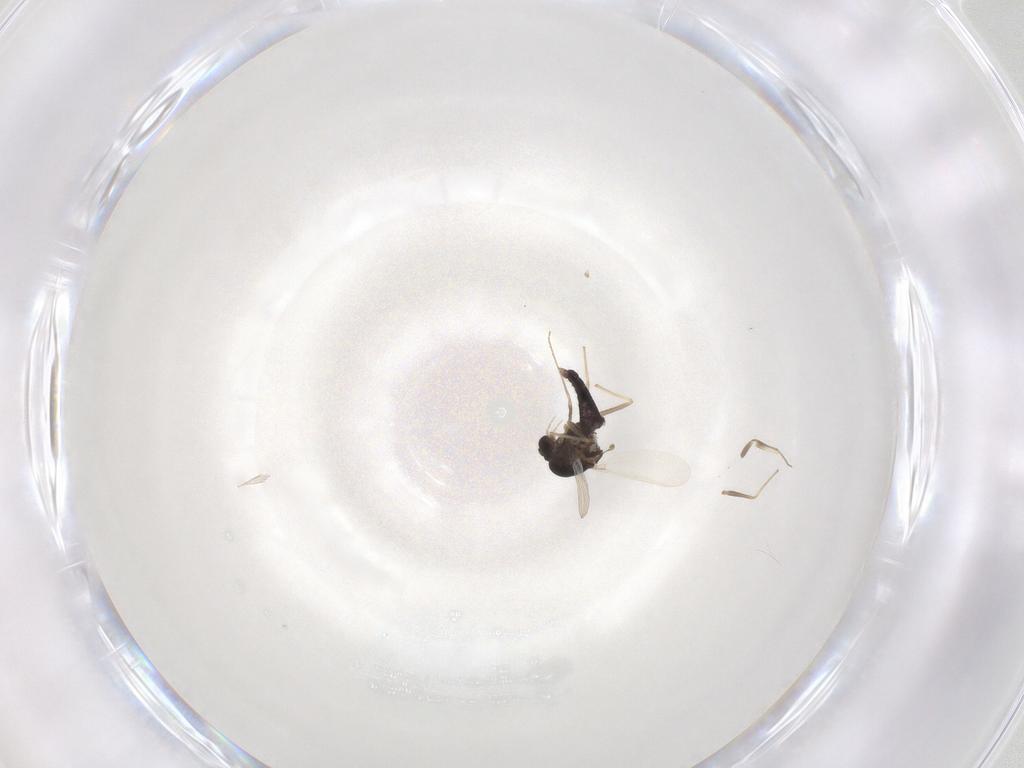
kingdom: Animalia
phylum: Arthropoda
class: Insecta
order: Diptera
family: Chironomidae
